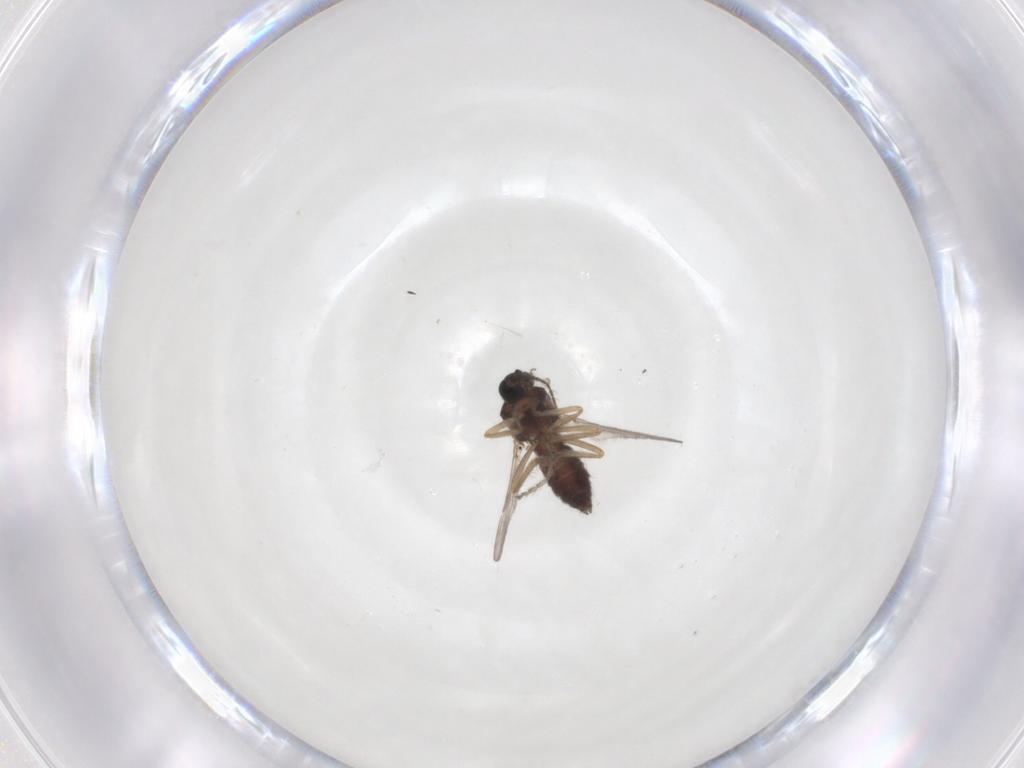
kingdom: Animalia
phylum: Arthropoda
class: Insecta
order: Diptera
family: Ceratopogonidae
